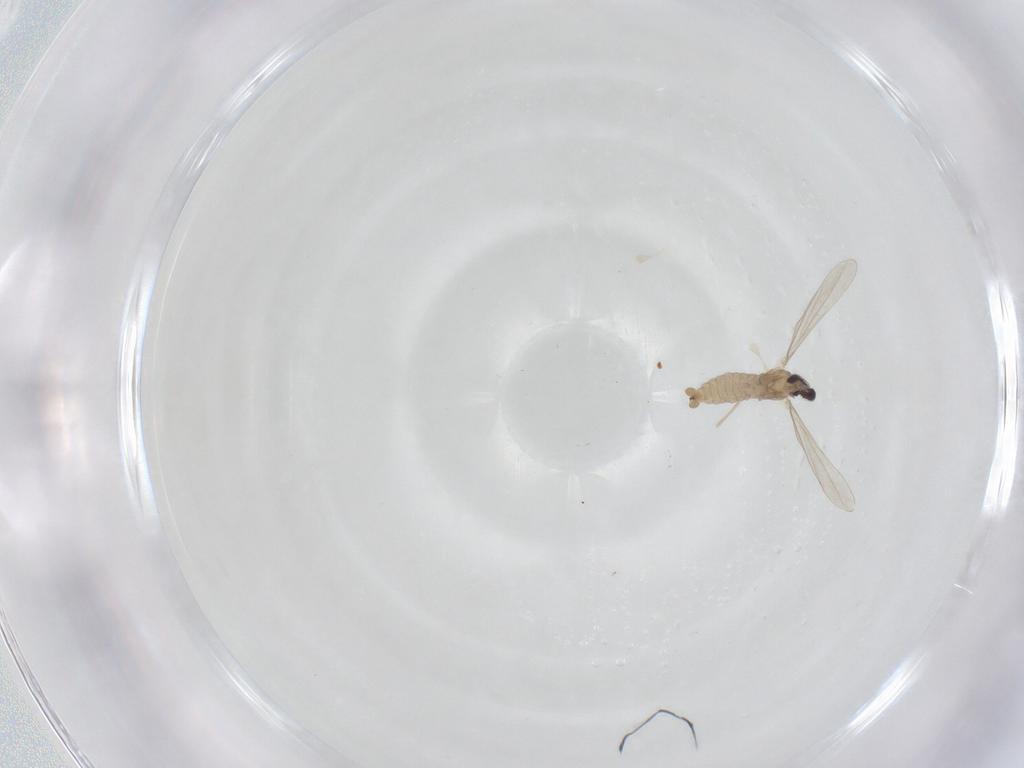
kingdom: Animalia
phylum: Arthropoda
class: Insecta
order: Diptera
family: Cecidomyiidae
